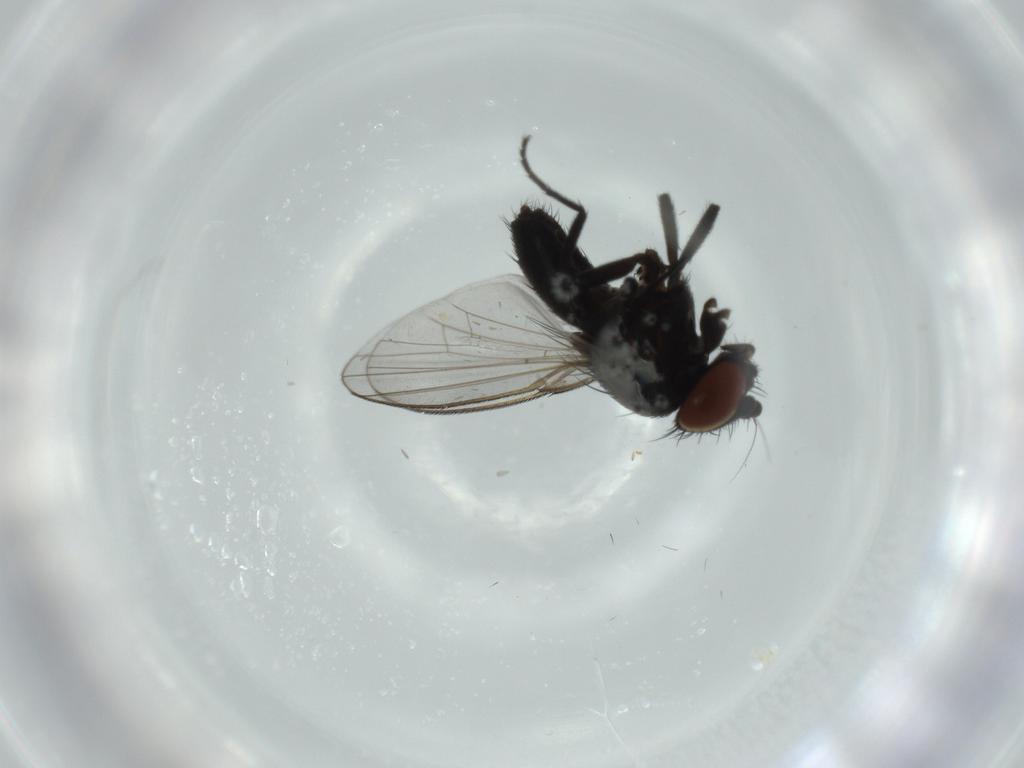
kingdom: Animalia
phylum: Arthropoda
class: Insecta
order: Diptera
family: Milichiidae
